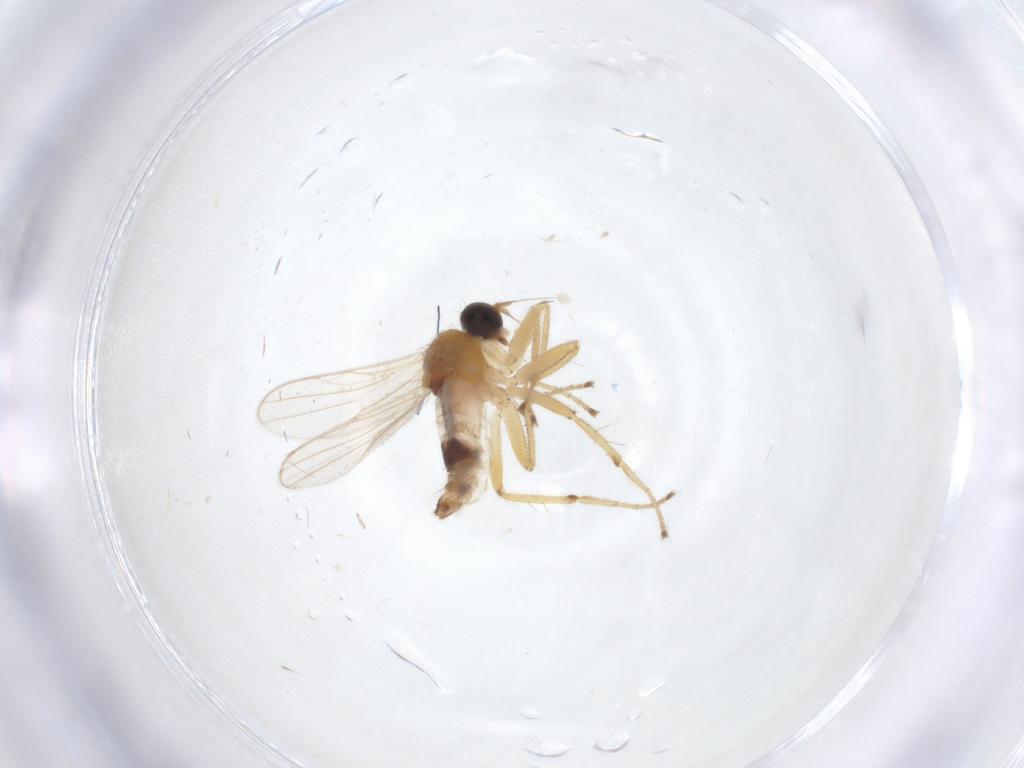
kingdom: Animalia
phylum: Arthropoda
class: Insecta
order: Diptera
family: Hybotidae
